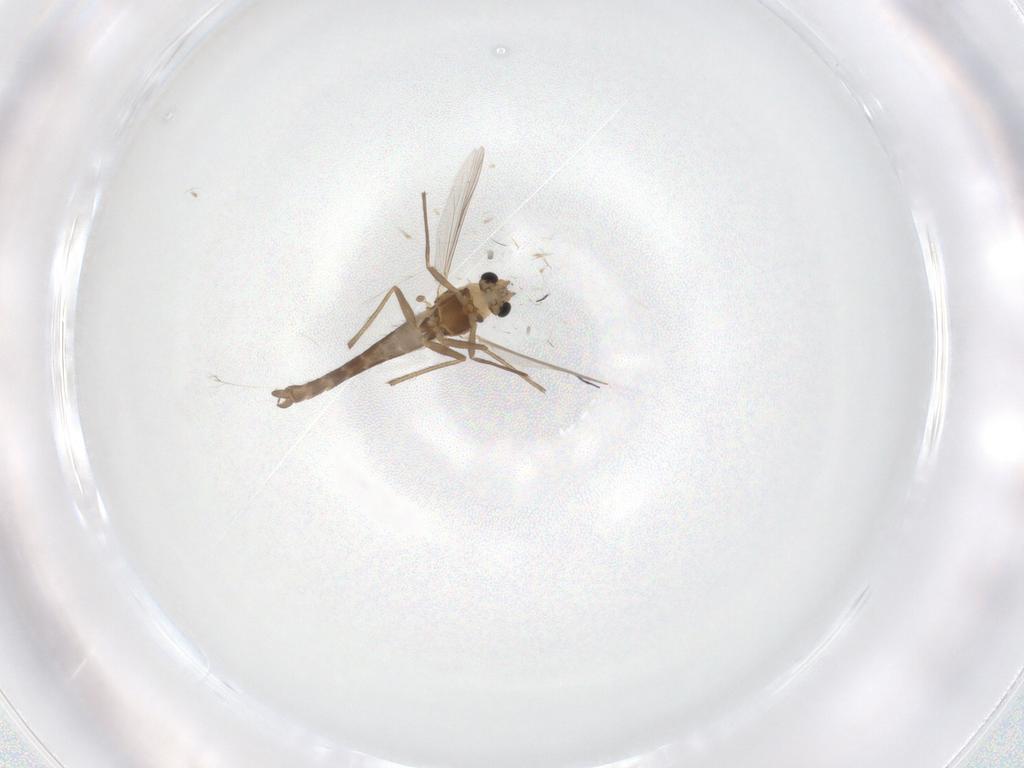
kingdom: Animalia
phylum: Arthropoda
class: Insecta
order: Diptera
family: Chironomidae
